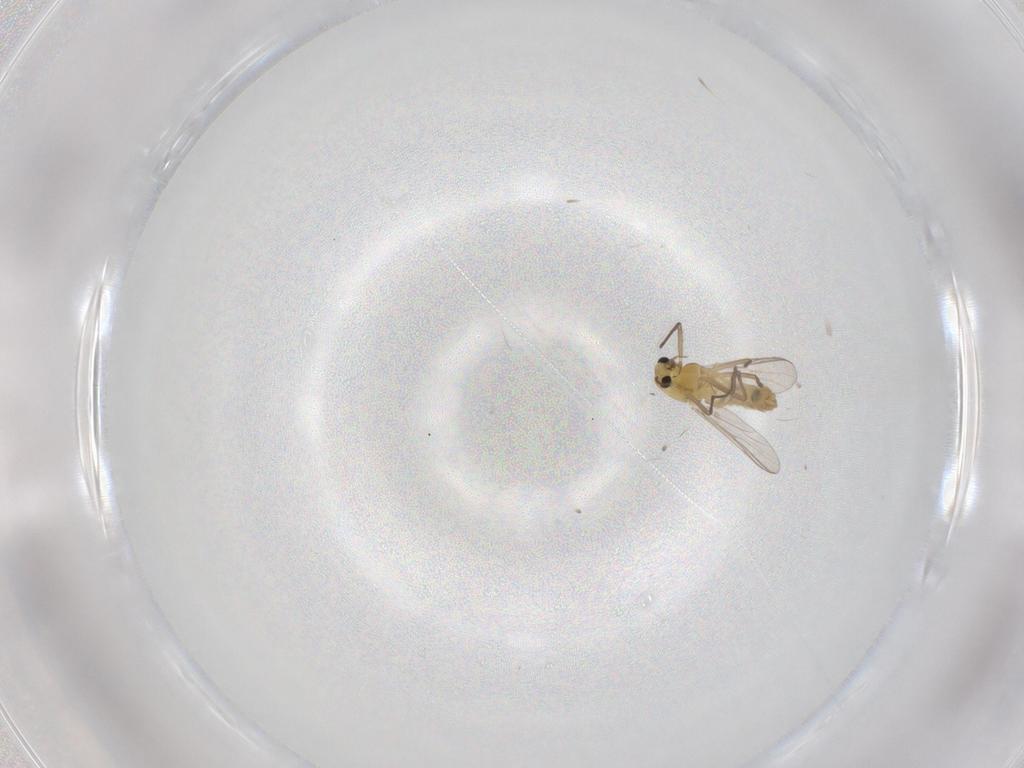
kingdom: Animalia
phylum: Arthropoda
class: Insecta
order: Diptera
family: Chironomidae
